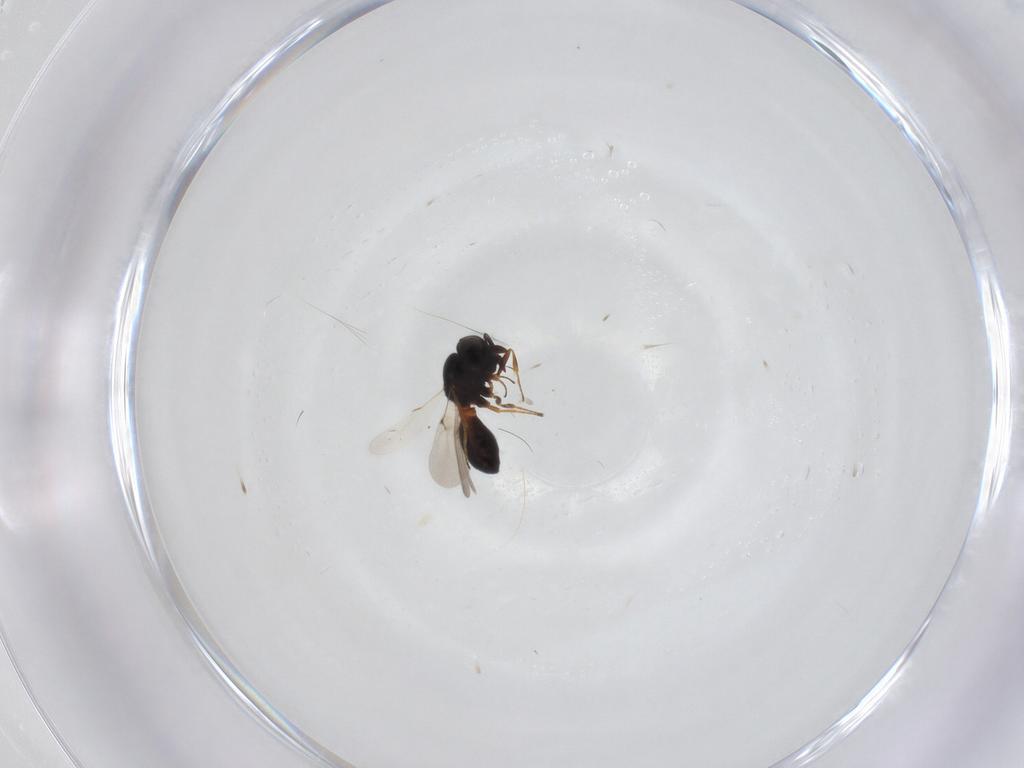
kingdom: Animalia
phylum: Arthropoda
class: Insecta
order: Hymenoptera
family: Scelionidae
